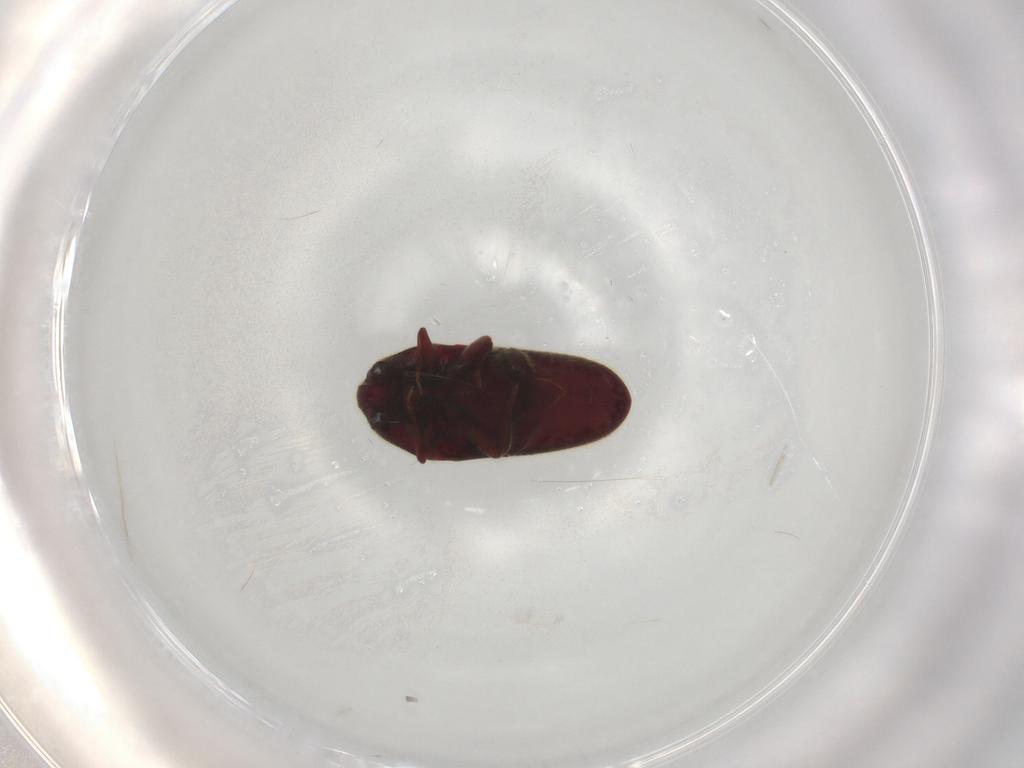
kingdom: Animalia
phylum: Arthropoda
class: Insecta
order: Coleoptera
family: Throscidae
